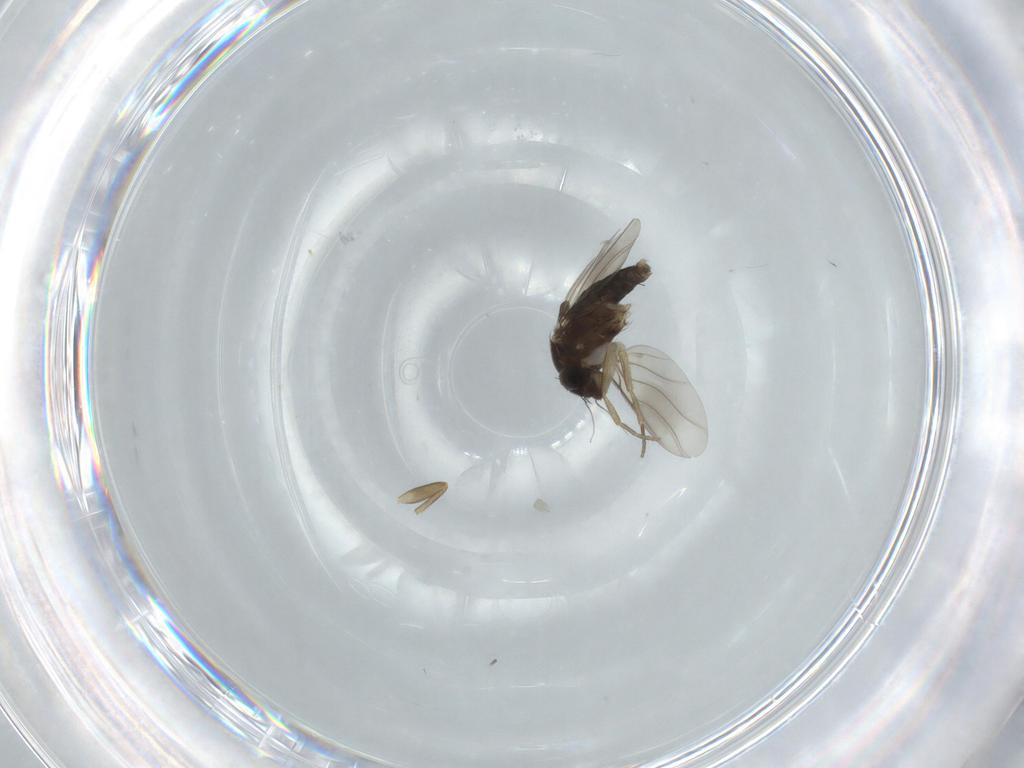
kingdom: Animalia
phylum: Arthropoda
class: Insecta
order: Diptera
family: Phoridae
